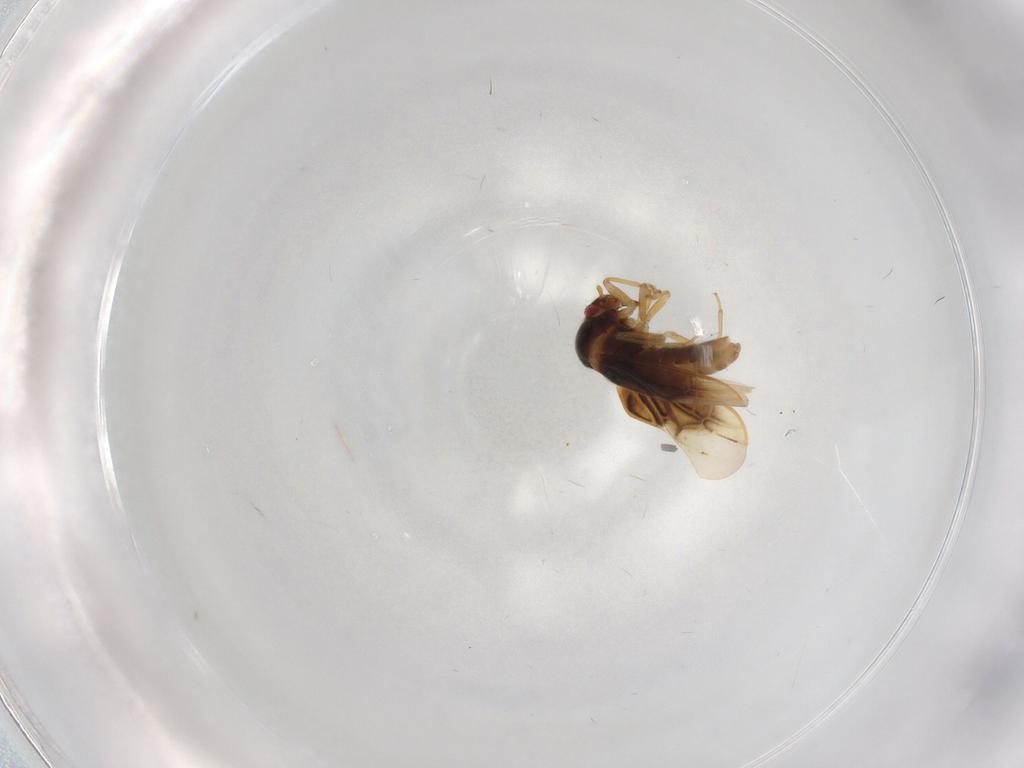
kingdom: Animalia
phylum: Arthropoda
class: Insecta
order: Hemiptera
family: Schizopteridae
